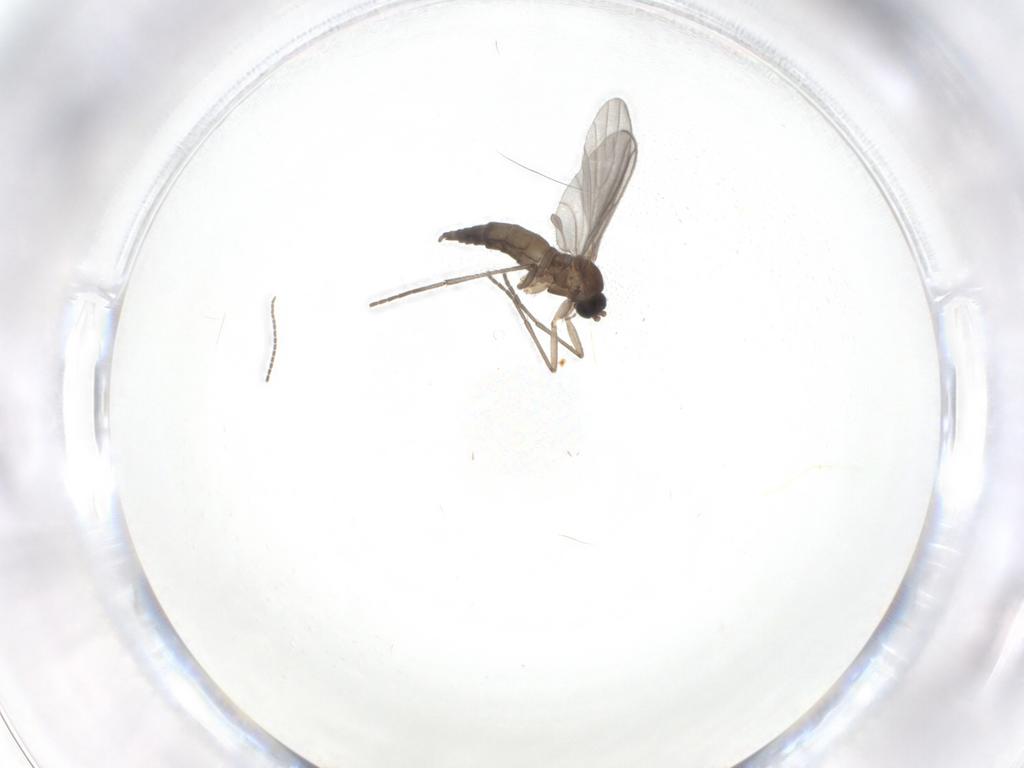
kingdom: Animalia
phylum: Arthropoda
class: Insecta
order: Diptera
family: Sciaridae
